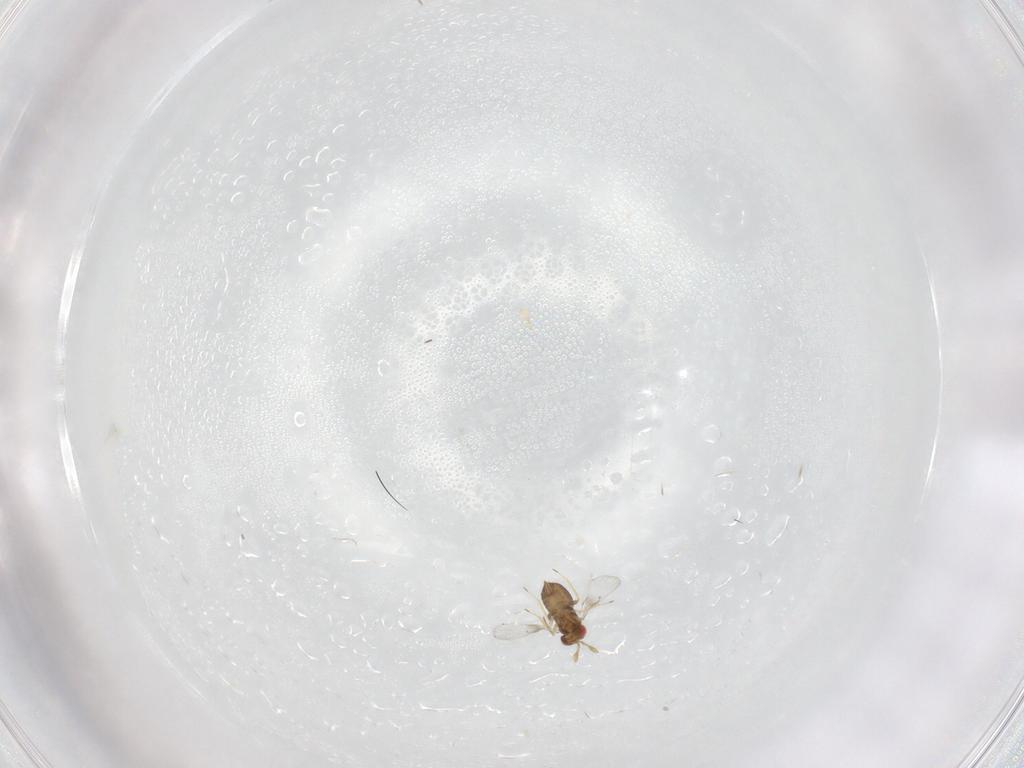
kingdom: Animalia
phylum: Arthropoda
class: Insecta
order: Hymenoptera
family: Trichogrammatidae
